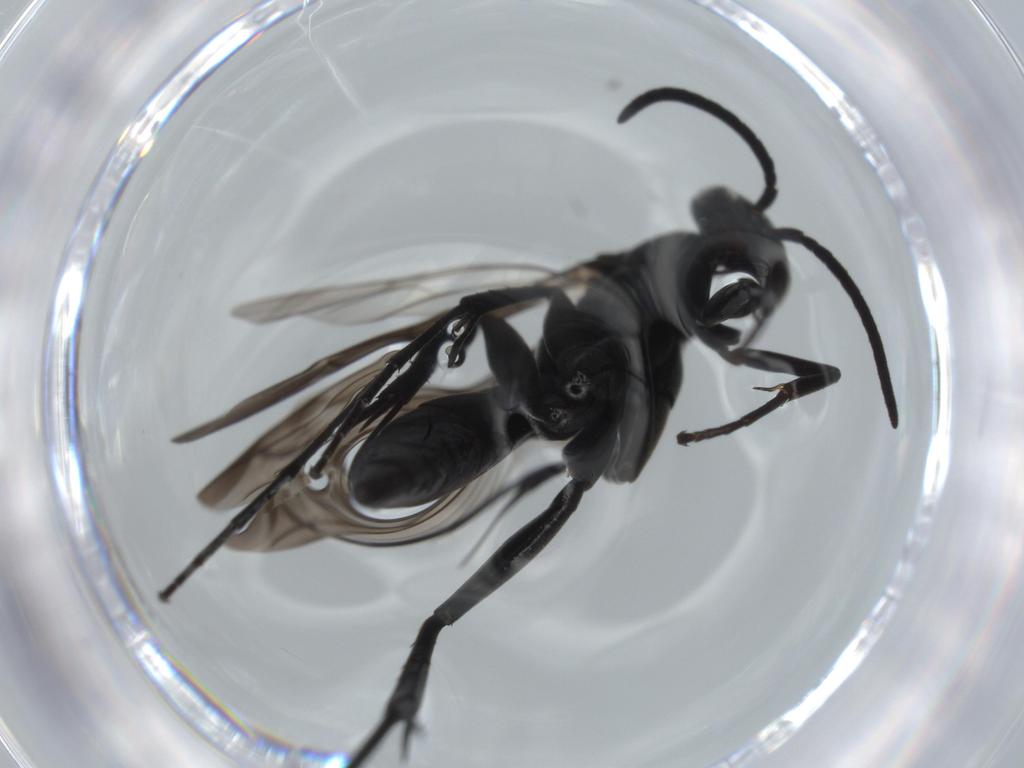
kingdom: Animalia
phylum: Arthropoda
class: Insecta
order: Hymenoptera
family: Pompilidae
